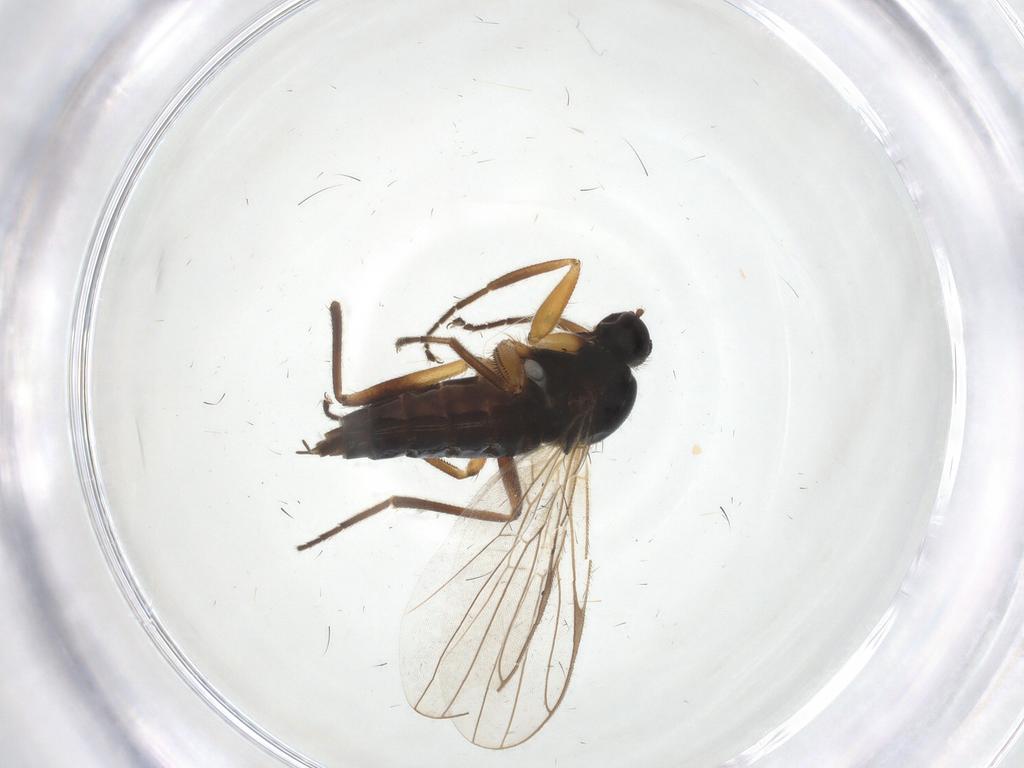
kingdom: Animalia
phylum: Arthropoda
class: Insecta
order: Diptera
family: Hybotidae
